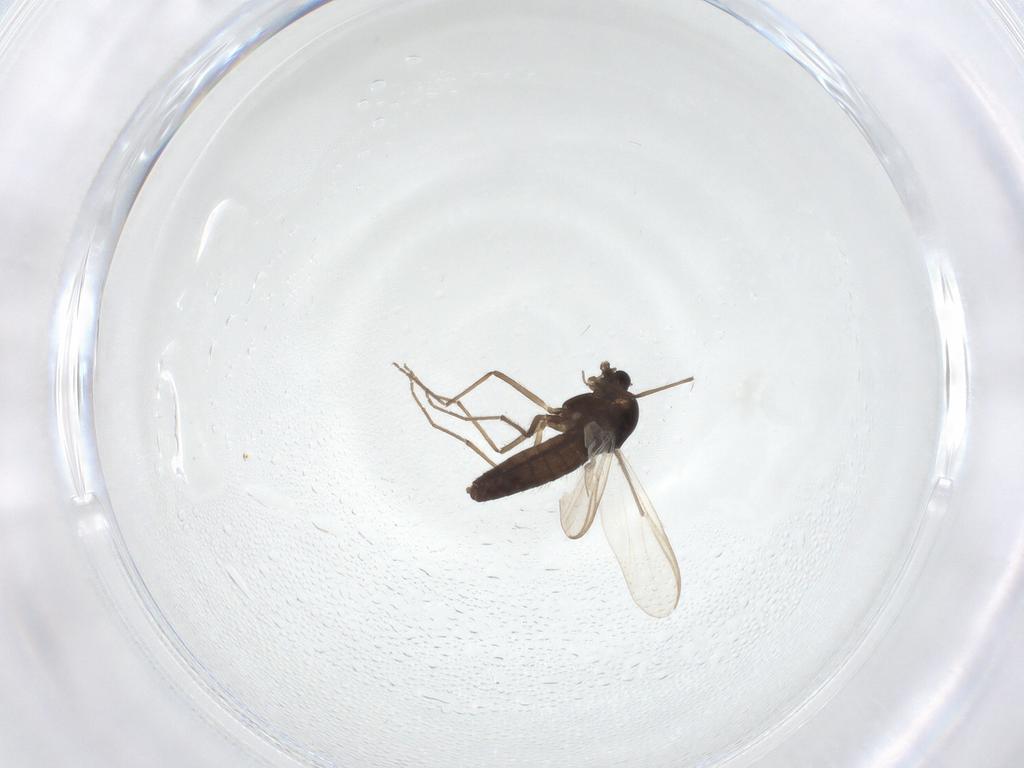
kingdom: Animalia
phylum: Arthropoda
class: Insecta
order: Diptera
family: Chironomidae
